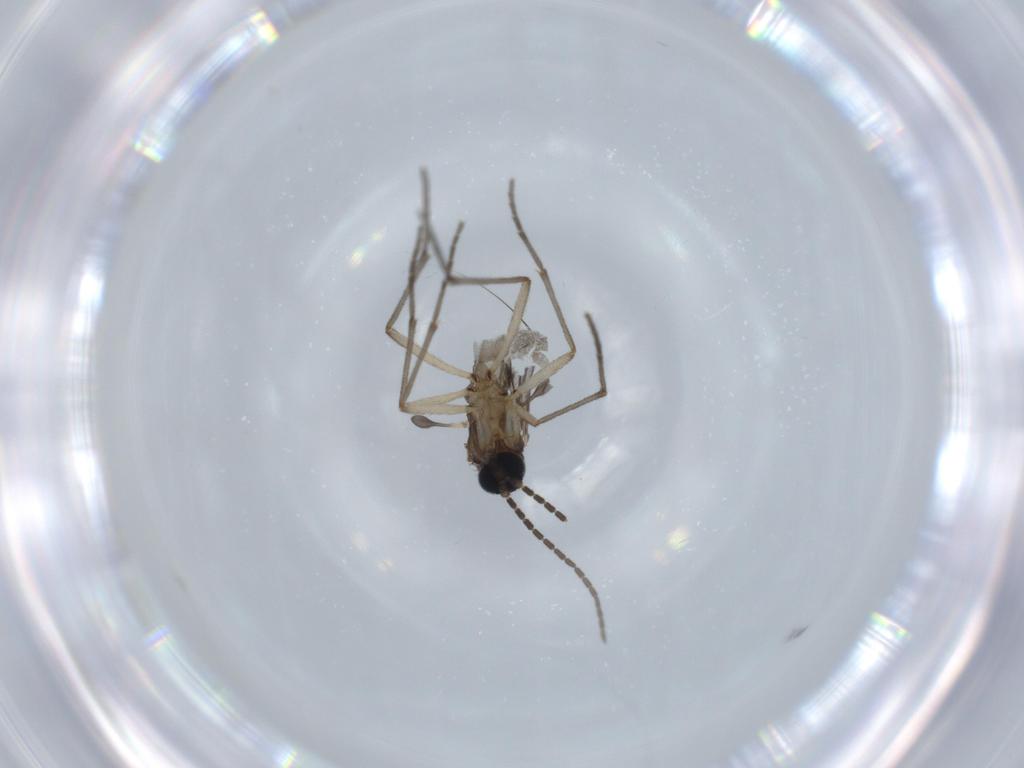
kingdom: Animalia
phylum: Arthropoda
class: Insecta
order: Diptera
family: Sciaridae
